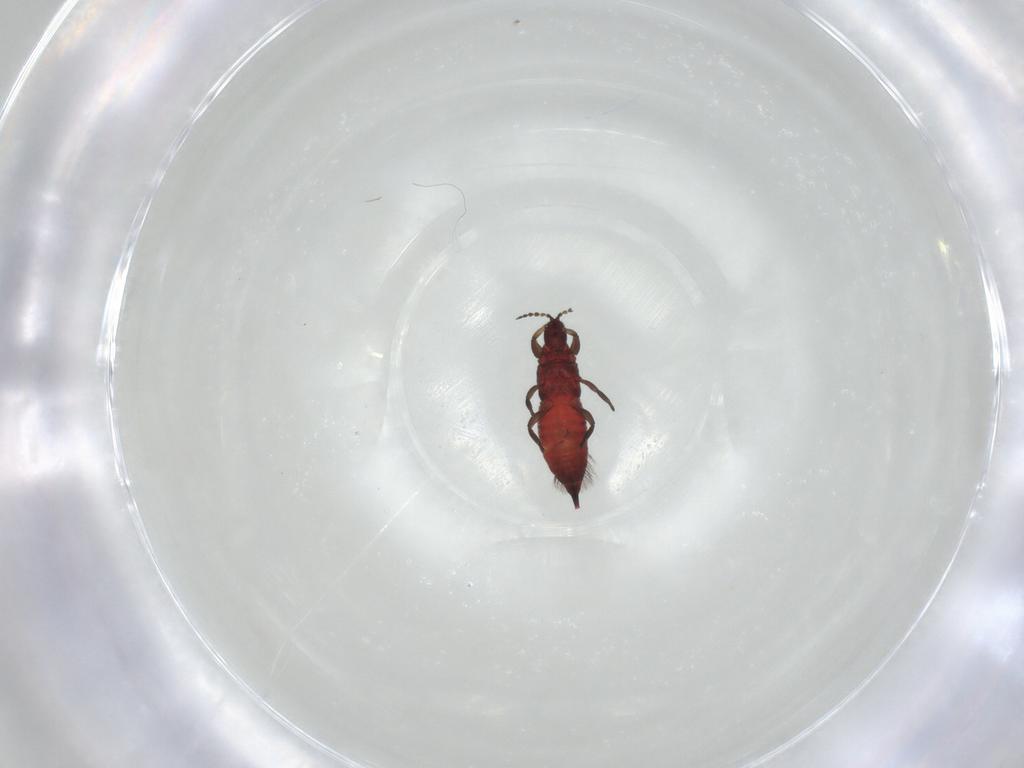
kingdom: Animalia
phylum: Arthropoda
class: Insecta
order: Thysanoptera
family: Phlaeothripidae
